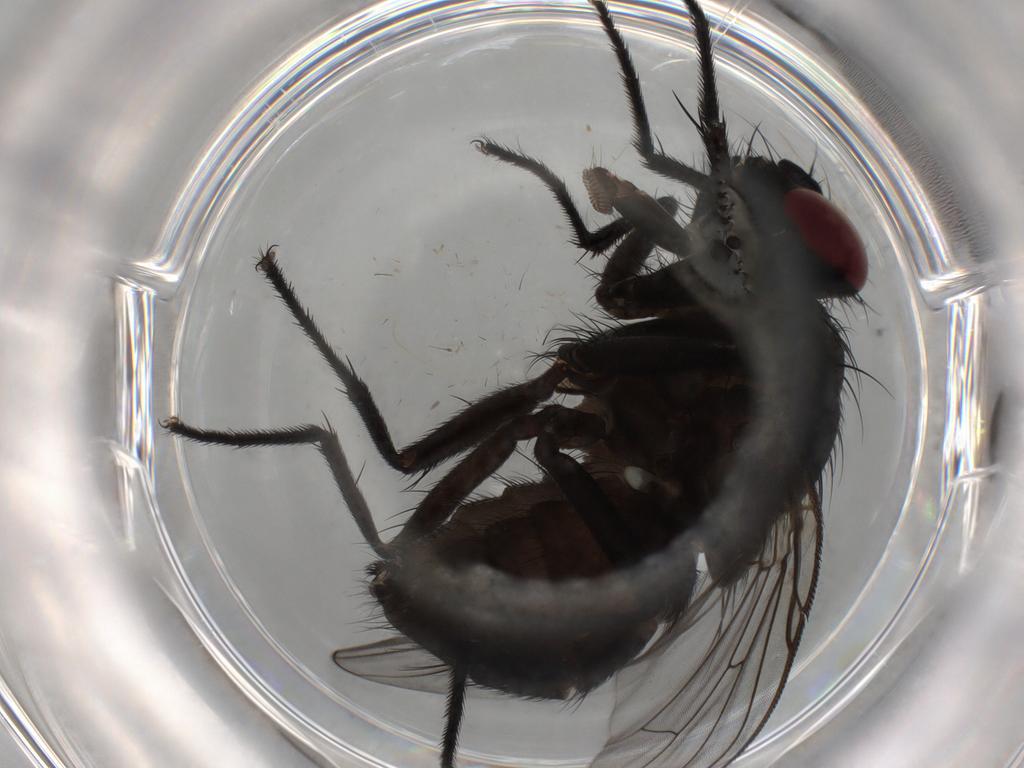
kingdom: Animalia
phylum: Arthropoda
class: Insecta
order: Diptera
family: Muscidae
